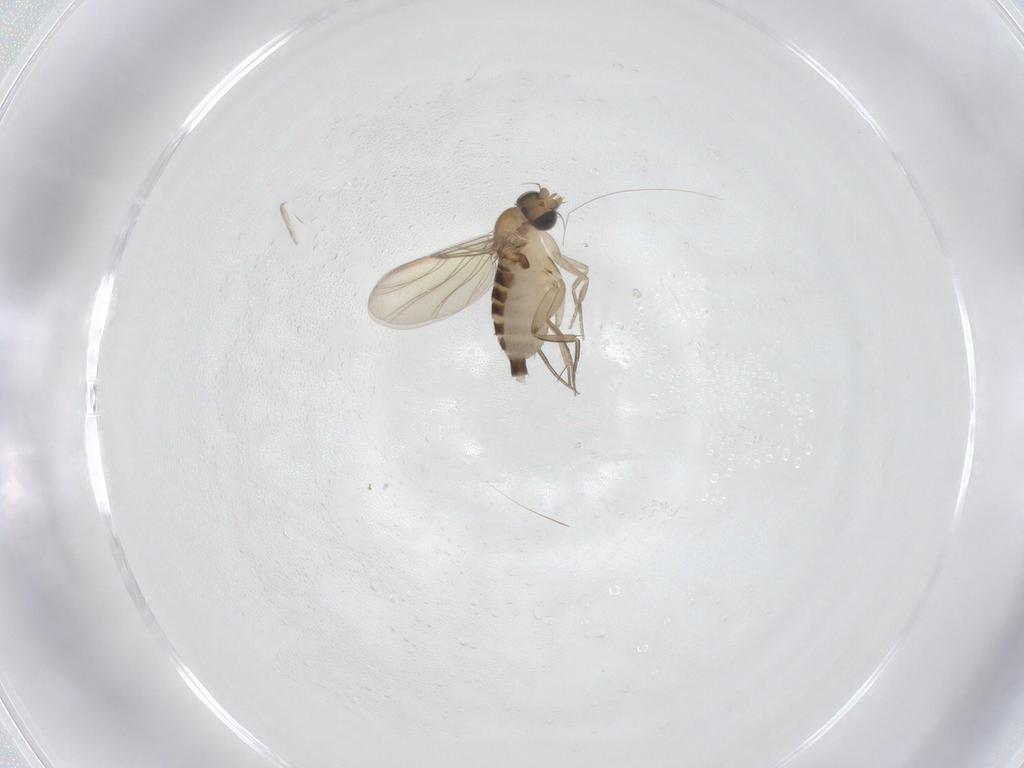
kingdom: Animalia
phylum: Arthropoda
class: Insecta
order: Diptera
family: Phoridae
